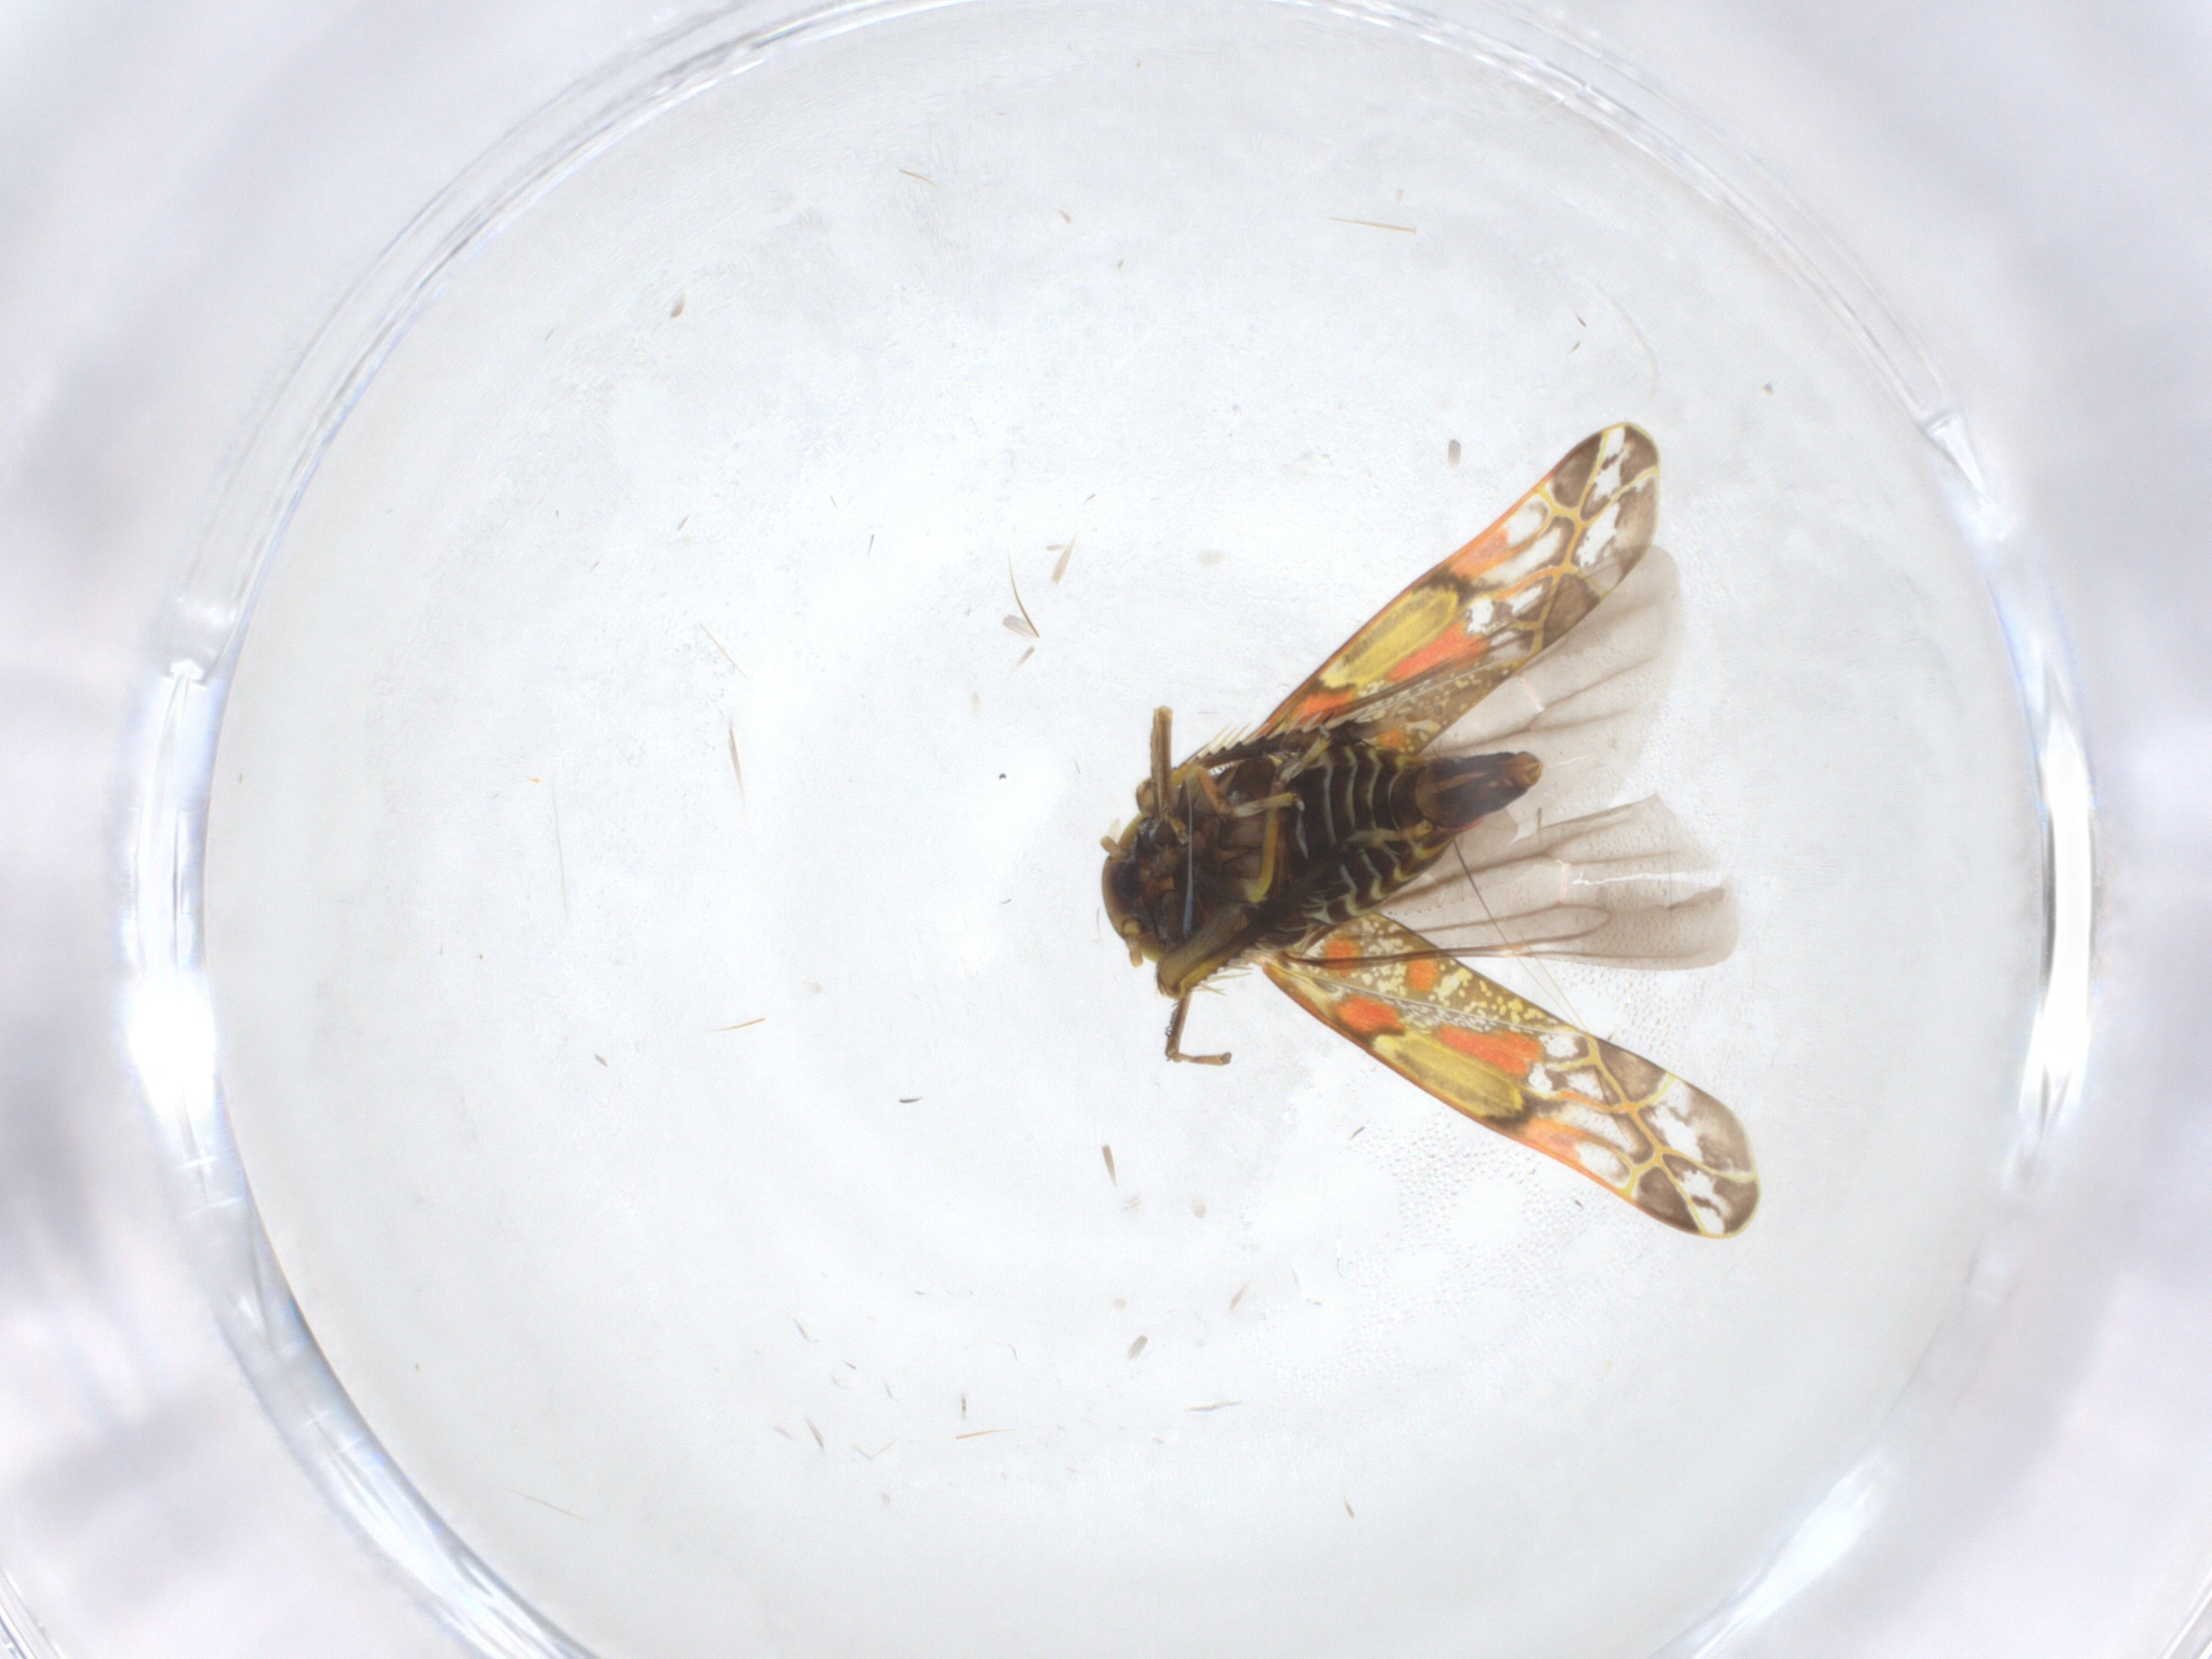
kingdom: Animalia
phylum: Arthropoda
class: Insecta
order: Hemiptera
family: Cicadellidae
